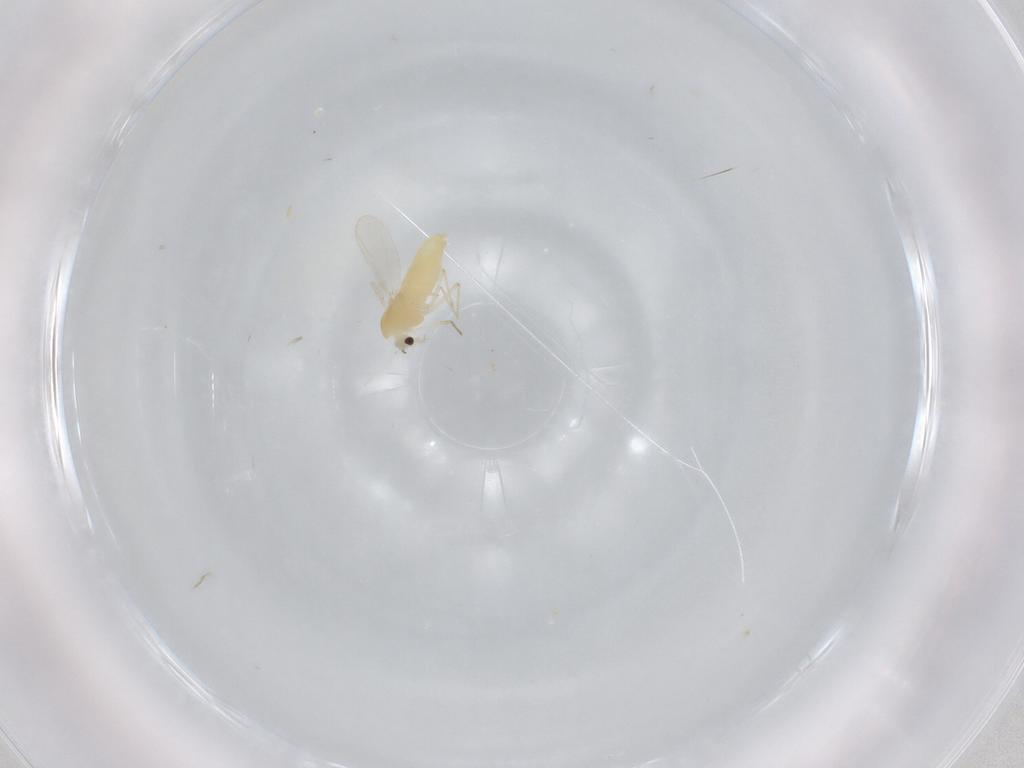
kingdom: Animalia
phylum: Arthropoda
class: Insecta
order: Diptera
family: Chironomidae
